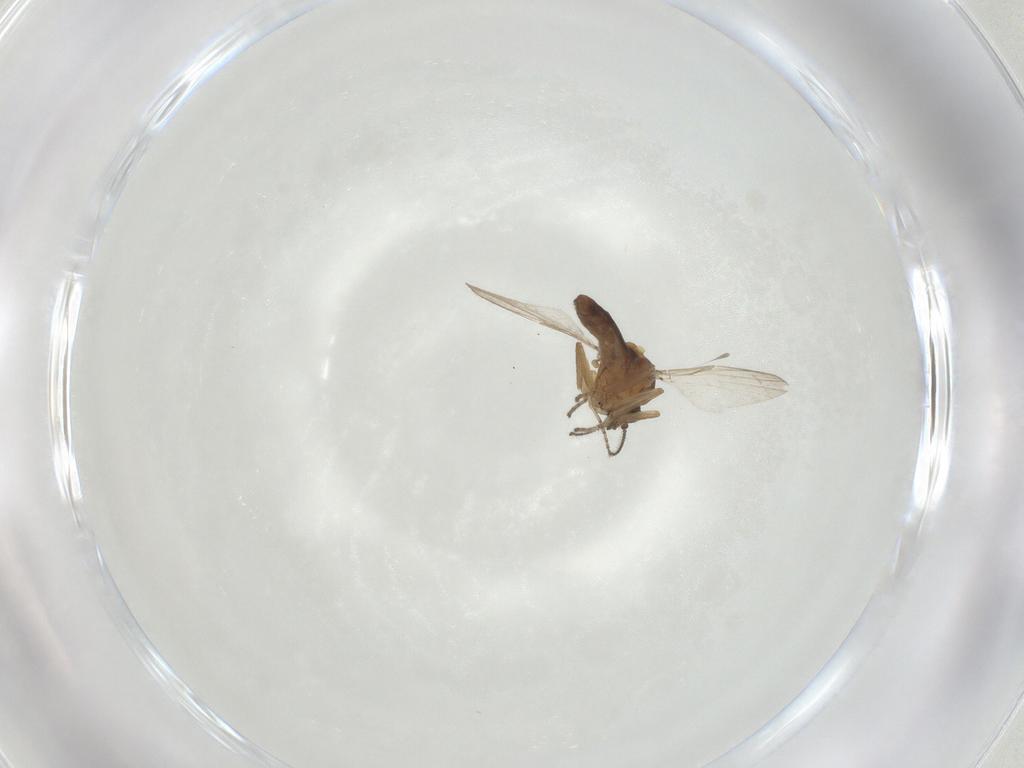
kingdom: Animalia
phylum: Arthropoda
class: Insecta
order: Diptera
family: Ceratopogonidae
